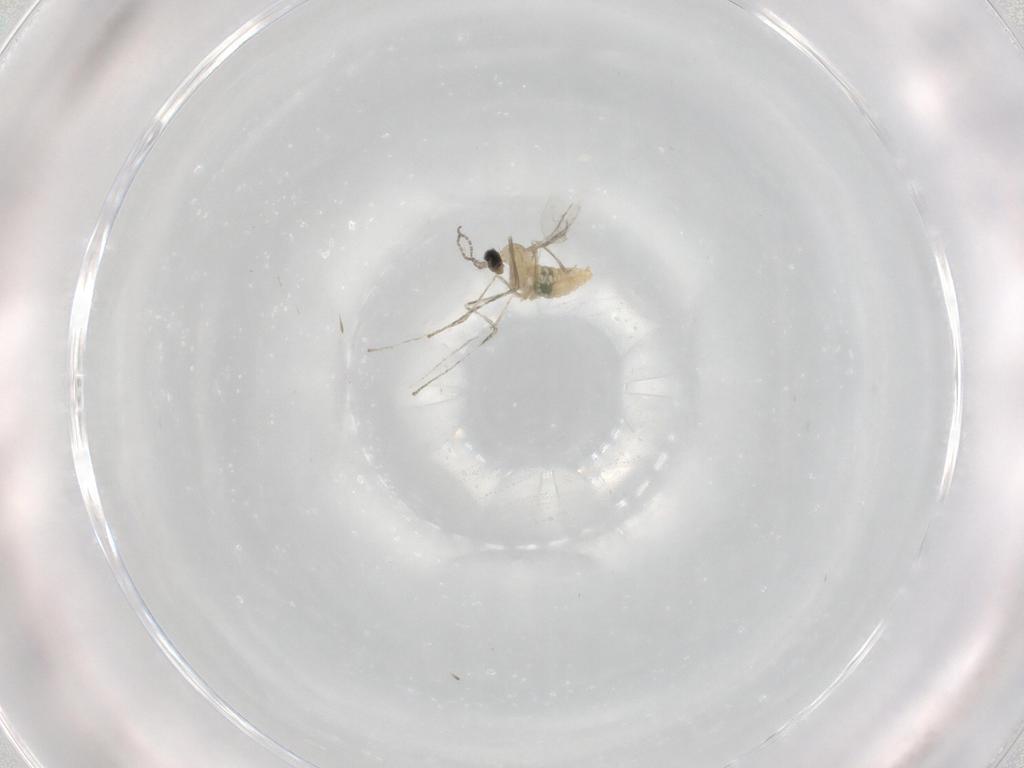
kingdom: Animalia
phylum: Arthropoda
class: Insecta
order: Diptera
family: Cecidomyiidae
